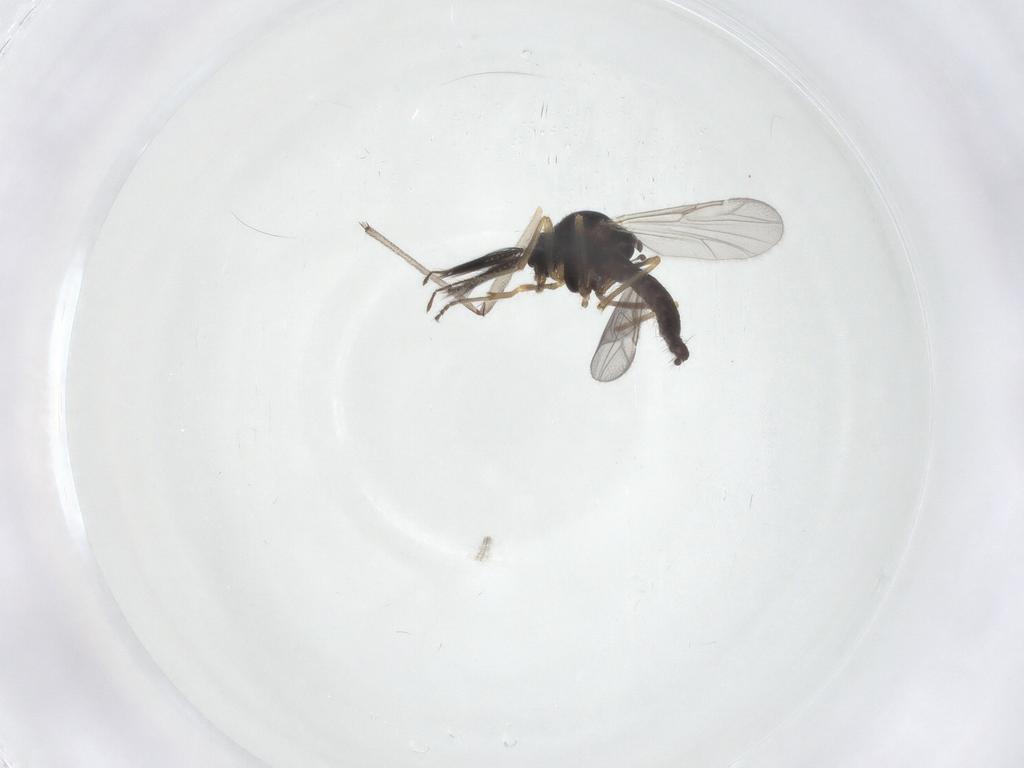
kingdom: Animalia
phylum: Arthropoda
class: Insecta
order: Diptera
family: Ceratopogonidae
